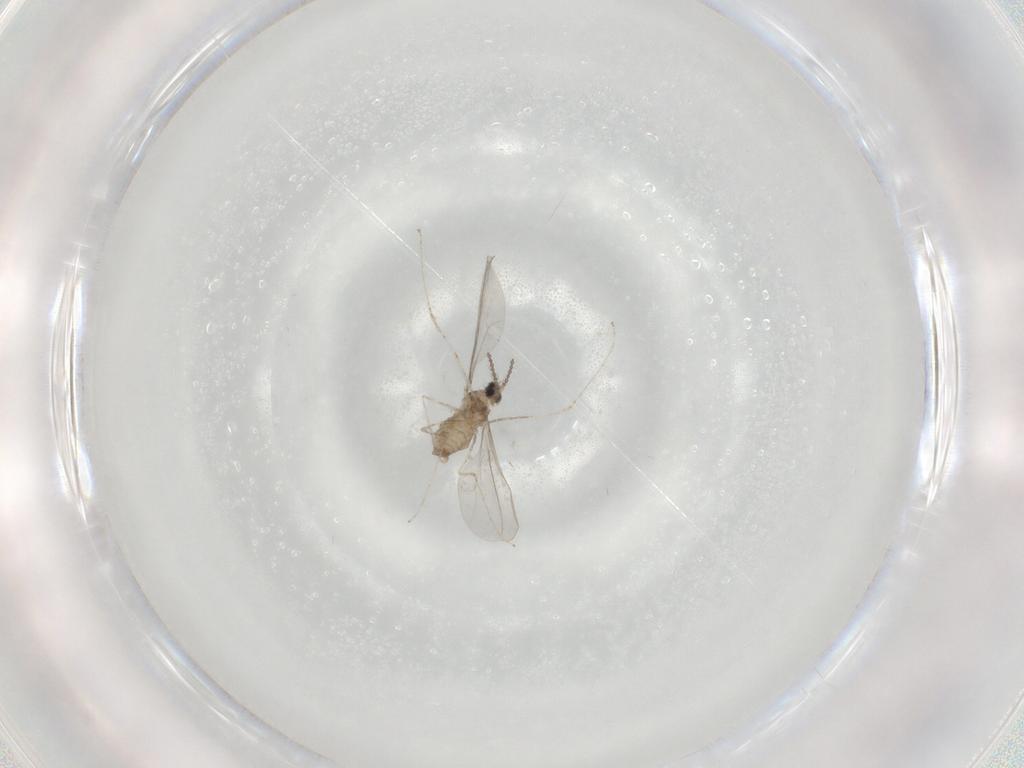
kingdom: Animalia
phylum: Arthropoda
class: Insecta
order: Diptera
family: Cecidomyiidae
